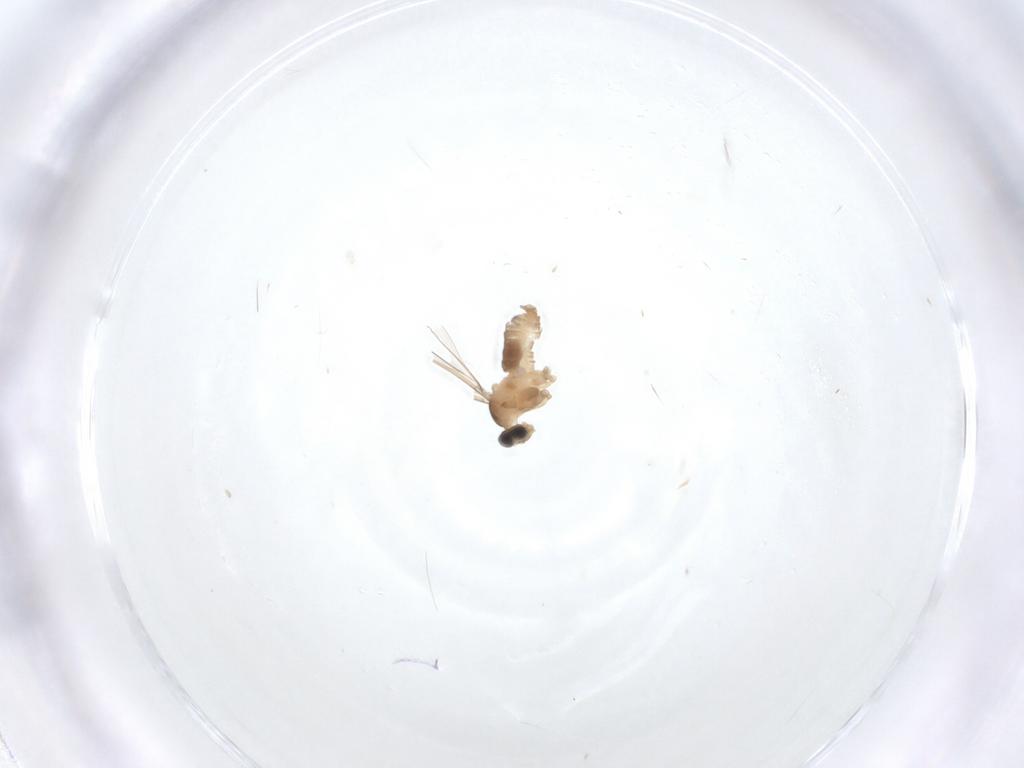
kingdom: Animalia
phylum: Arthropoda
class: Insecta
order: Diptera
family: Cecidomyiidae
